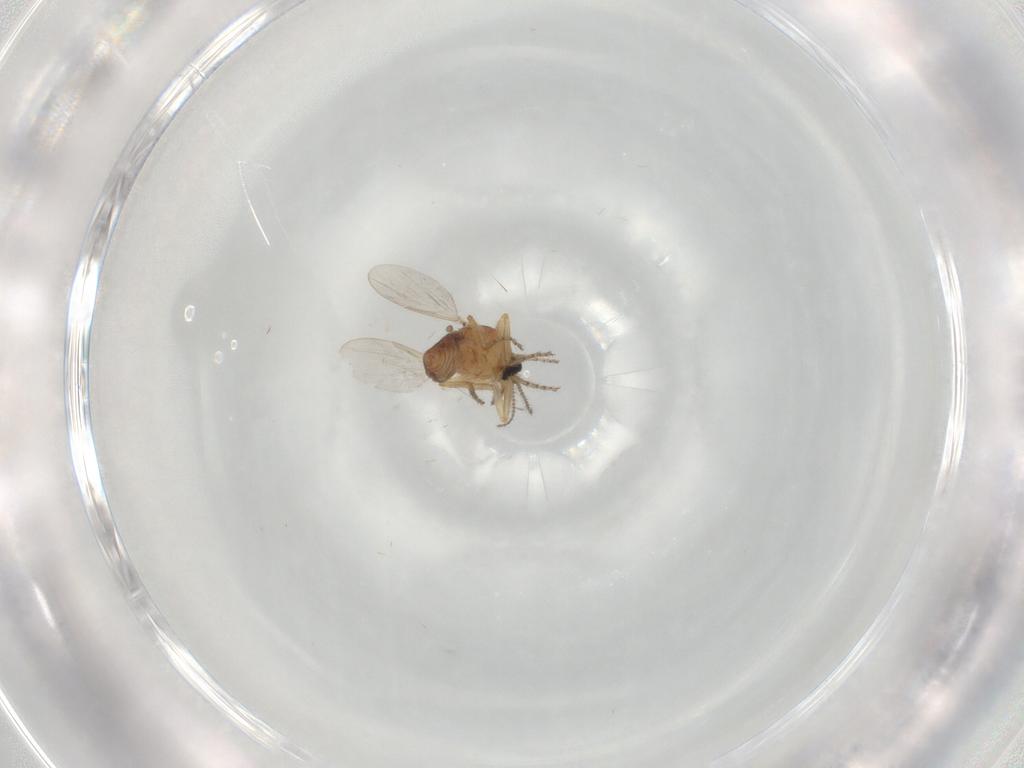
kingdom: Animalia
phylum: Arthropoda
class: Insecta
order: Diptera
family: Ceratopogonidae
